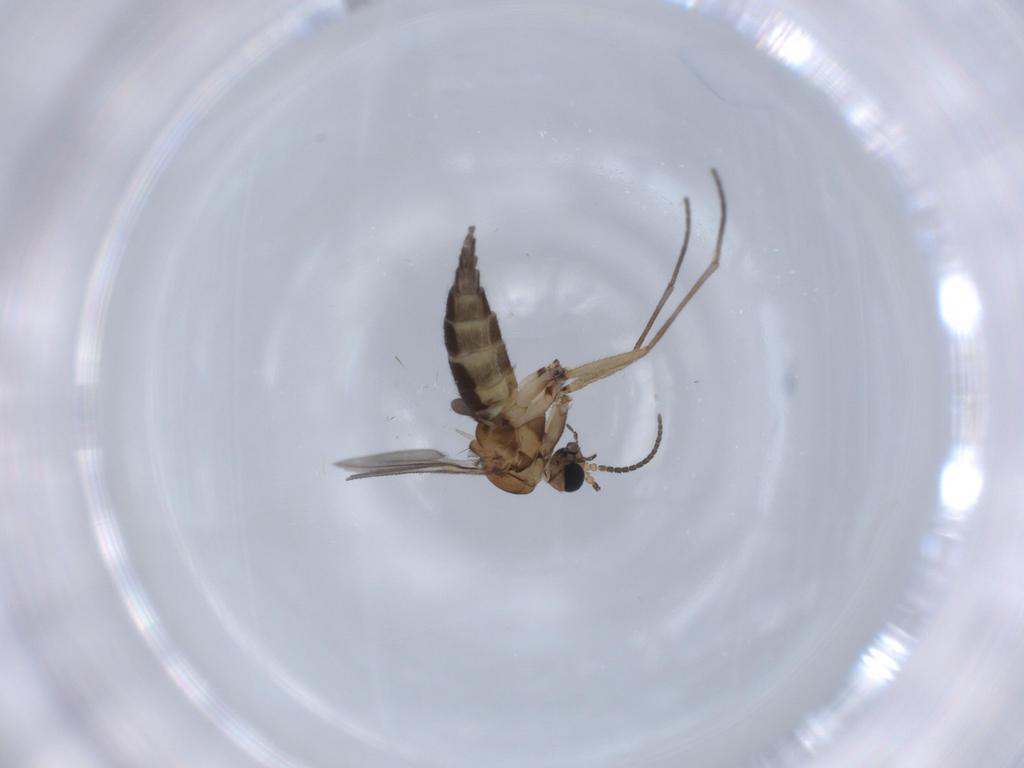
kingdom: Animalia
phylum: Arthropoda
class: Insecta
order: Diptera
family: Sciaridae
